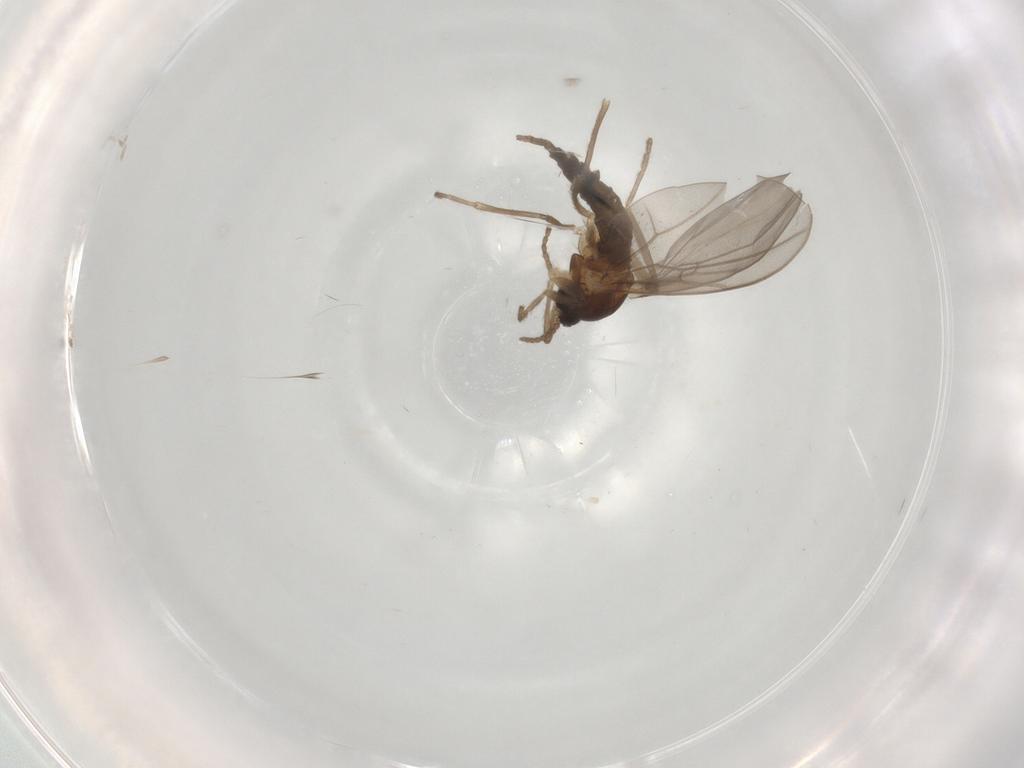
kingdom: Animalia
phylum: Arthropoda
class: Insecta
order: Diptera
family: Cecidomyiidae
